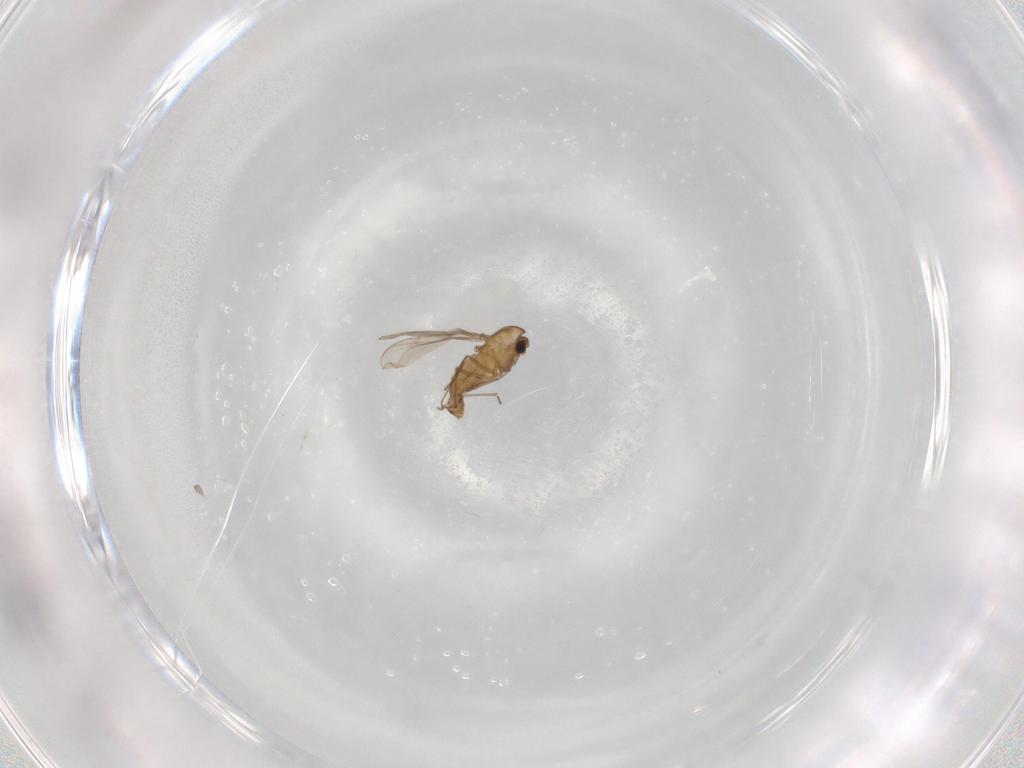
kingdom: Animalia
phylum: Arthropoda
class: Insecta
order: Diptera
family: Chironomidae
